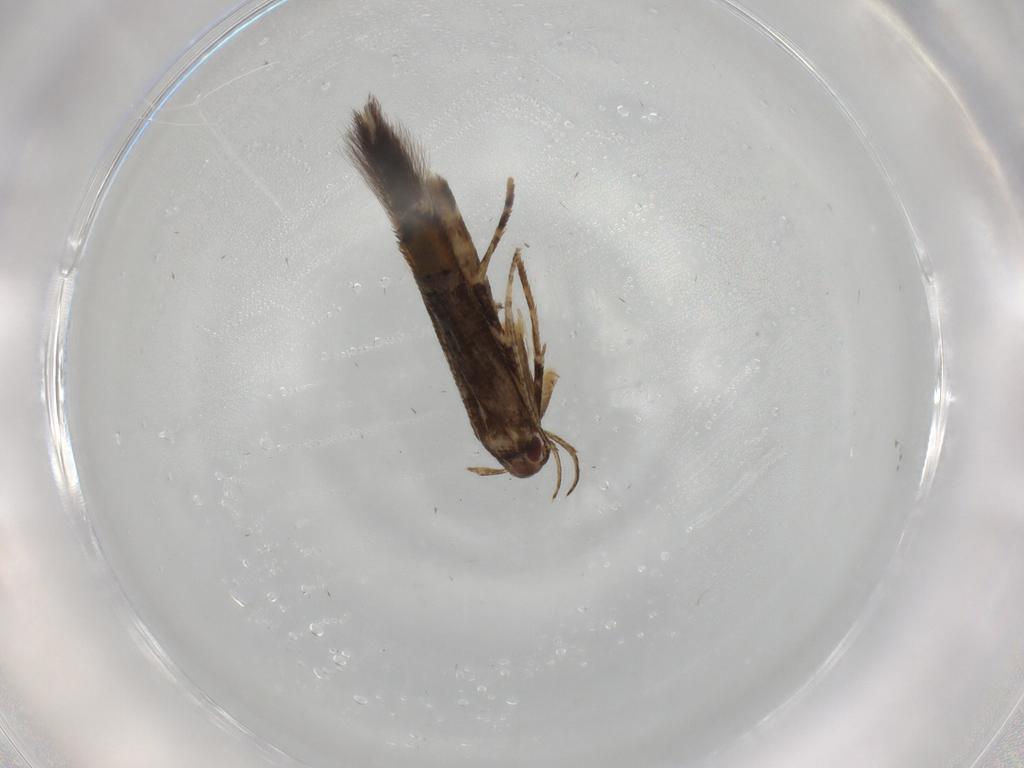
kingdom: Animalia
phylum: Arthropoda
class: Insecta
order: Lepidoptera
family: Cosmopterigidae
